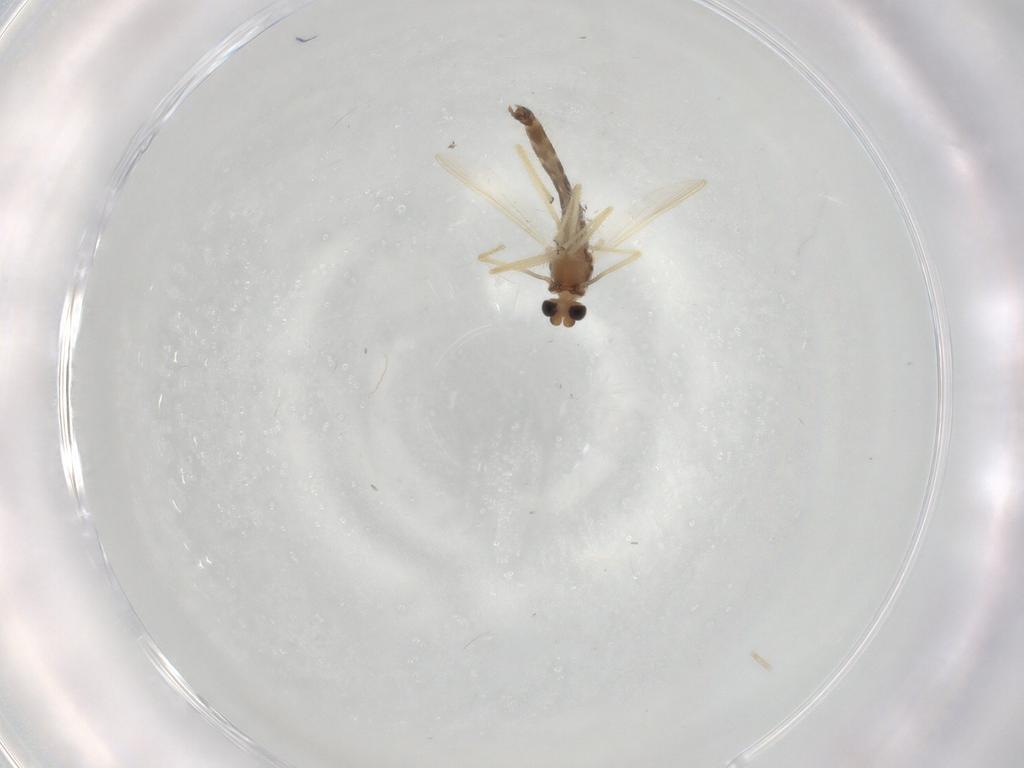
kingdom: Animalia
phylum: Arthropoda
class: Insecta
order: Diptera
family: Chironomidae
